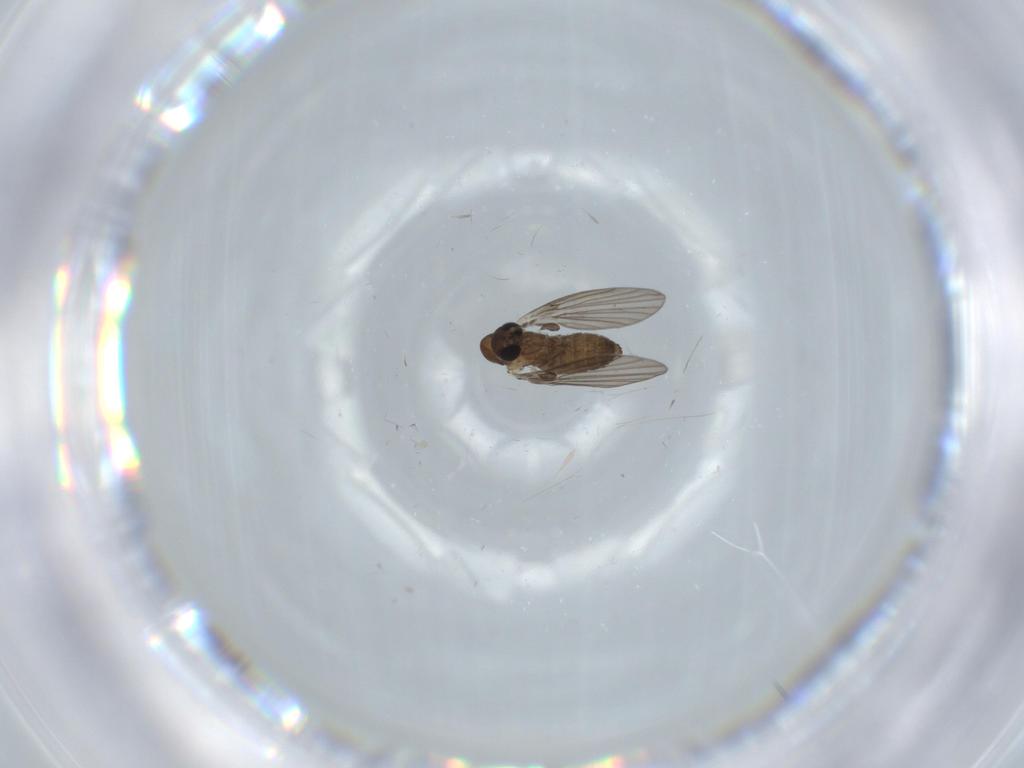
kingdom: Animalia
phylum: Arthropoda
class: Insecta
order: Diptera
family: Psychodidae
